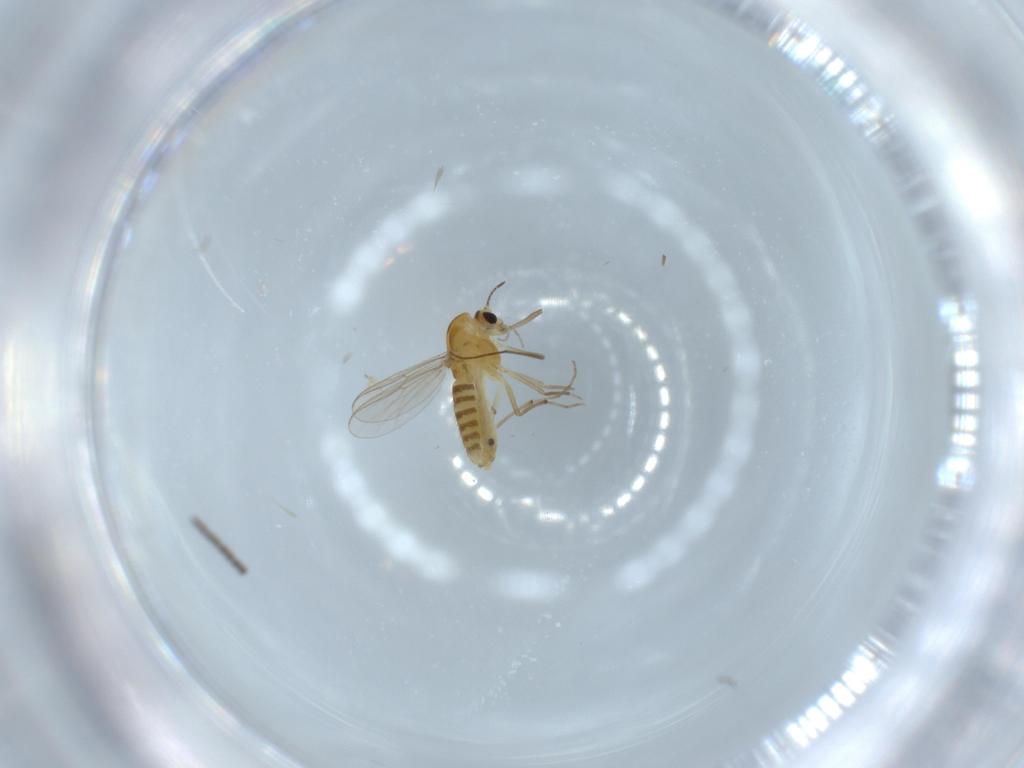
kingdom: Animalia
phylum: Arthropoda
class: Insecta
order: Diptera
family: Chironomidae
